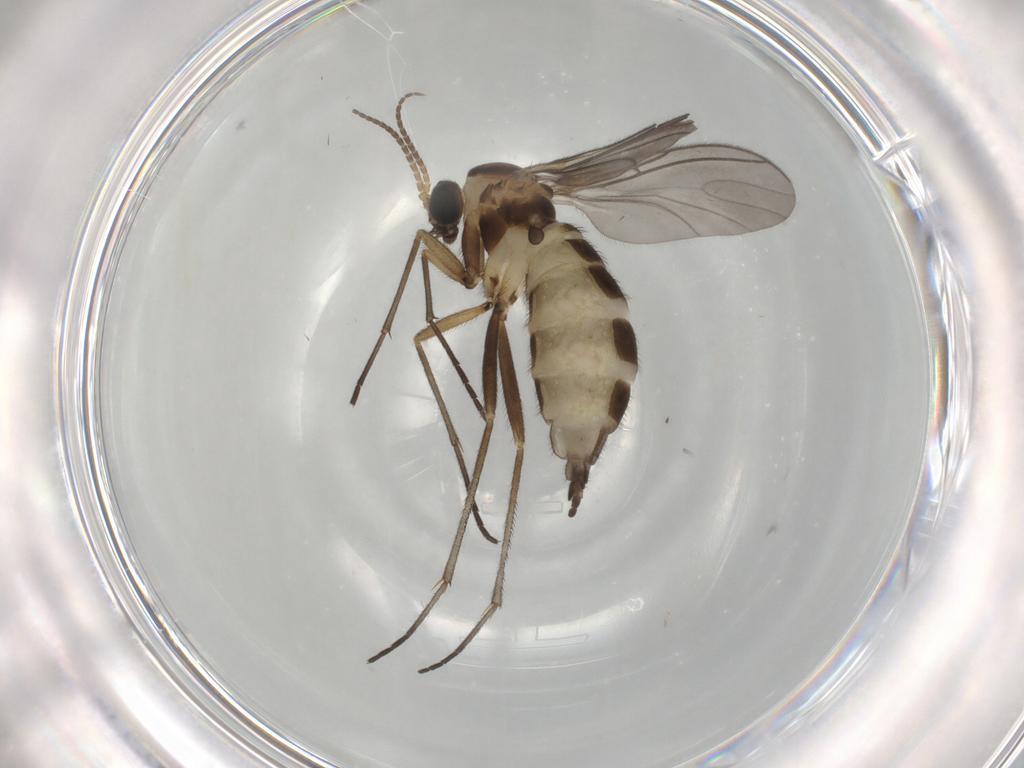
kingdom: Animalia
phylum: Arthropoda
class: Insecta
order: Diptera
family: Sciaridae
